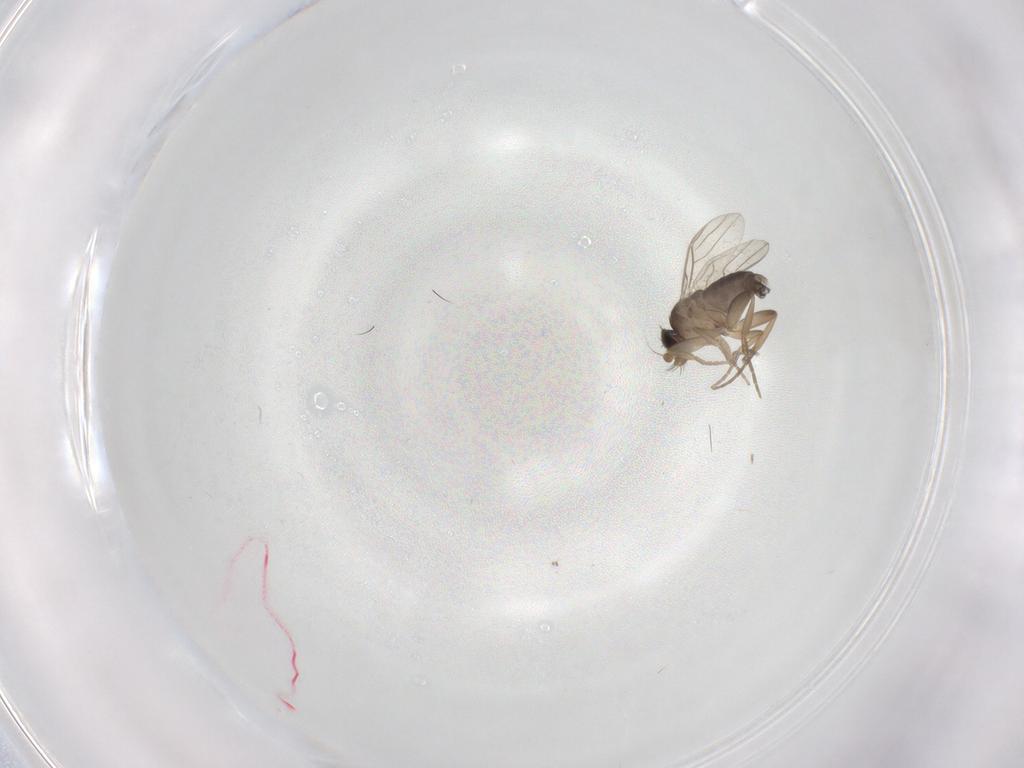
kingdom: Animalia
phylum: Arthropoda
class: Insecta
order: Diptera
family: Phoridae
